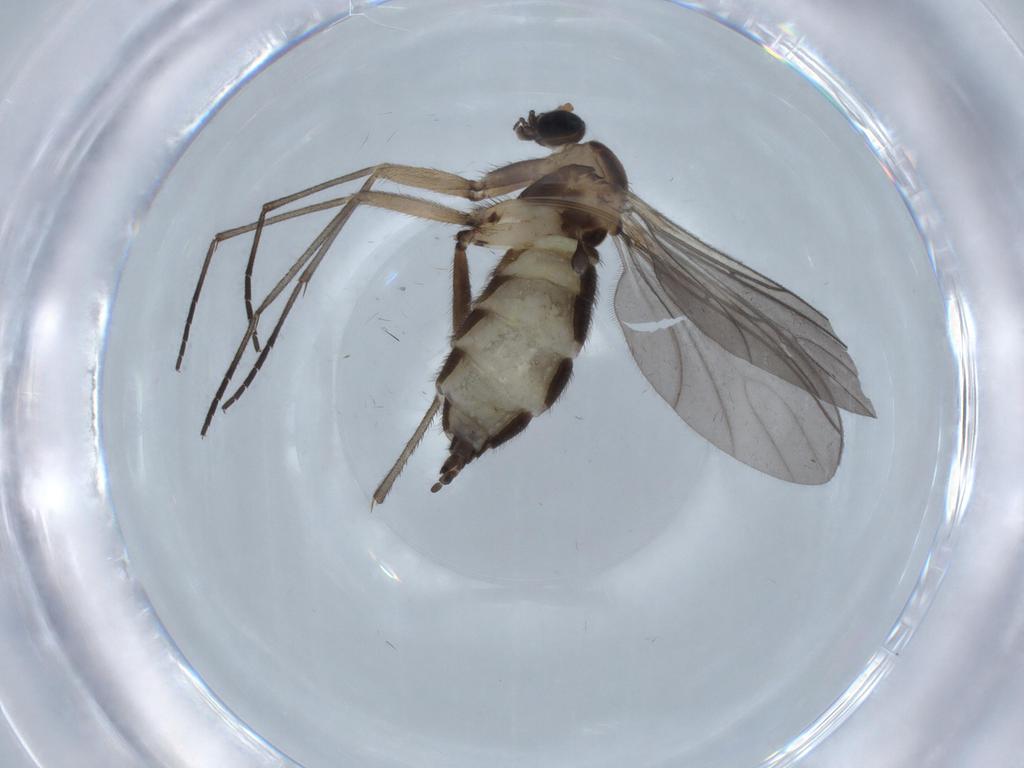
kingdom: Animalia
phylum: Arthropoda
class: Insecta
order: Diptera
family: Sciaridae
